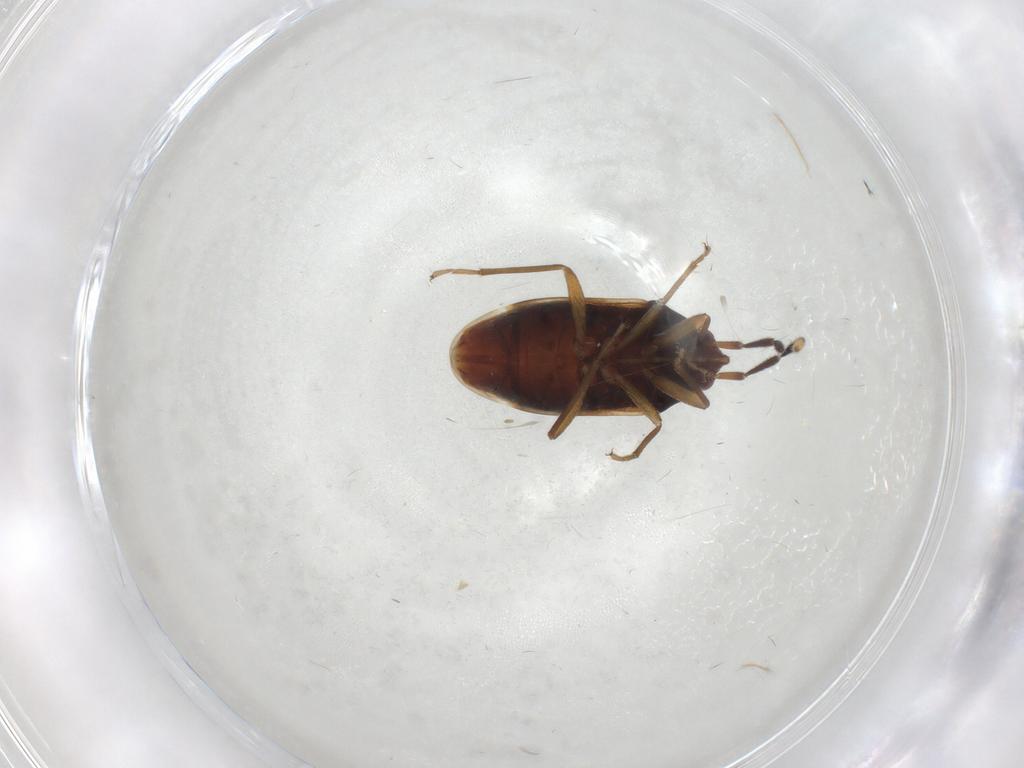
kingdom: Animalia
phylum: Arthropoda
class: Insecta
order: Hemiptera
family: Rhyparochromidae
